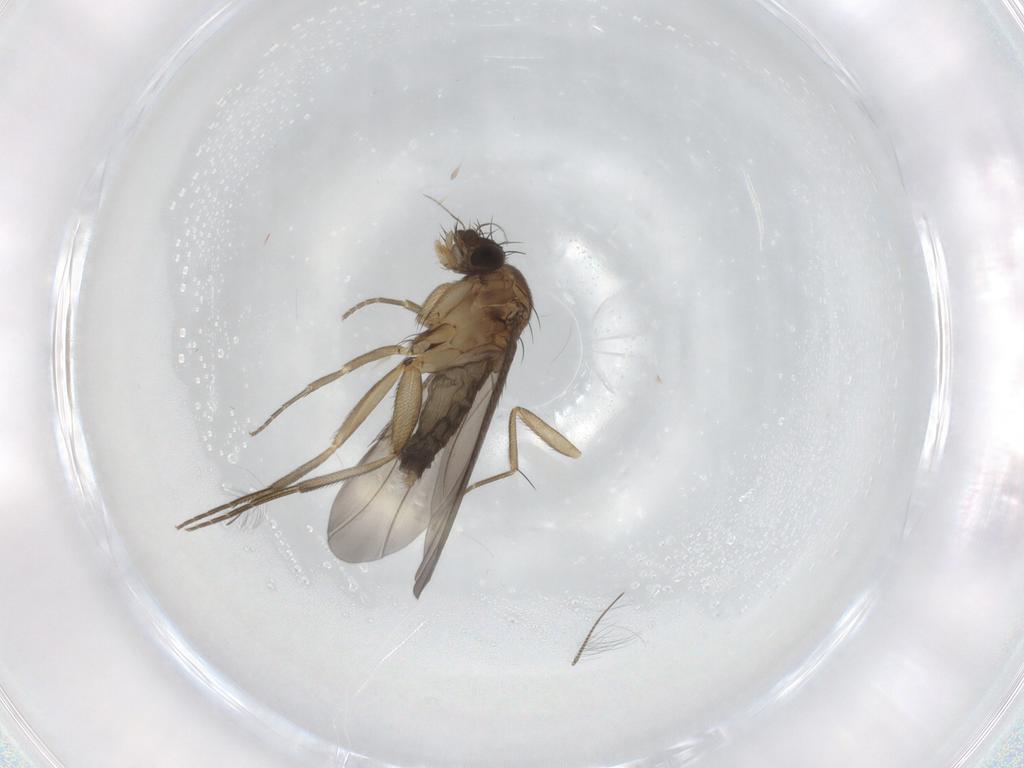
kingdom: Animalia
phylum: Arthropoda
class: Insecta
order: Diptera
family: Chironomidae
